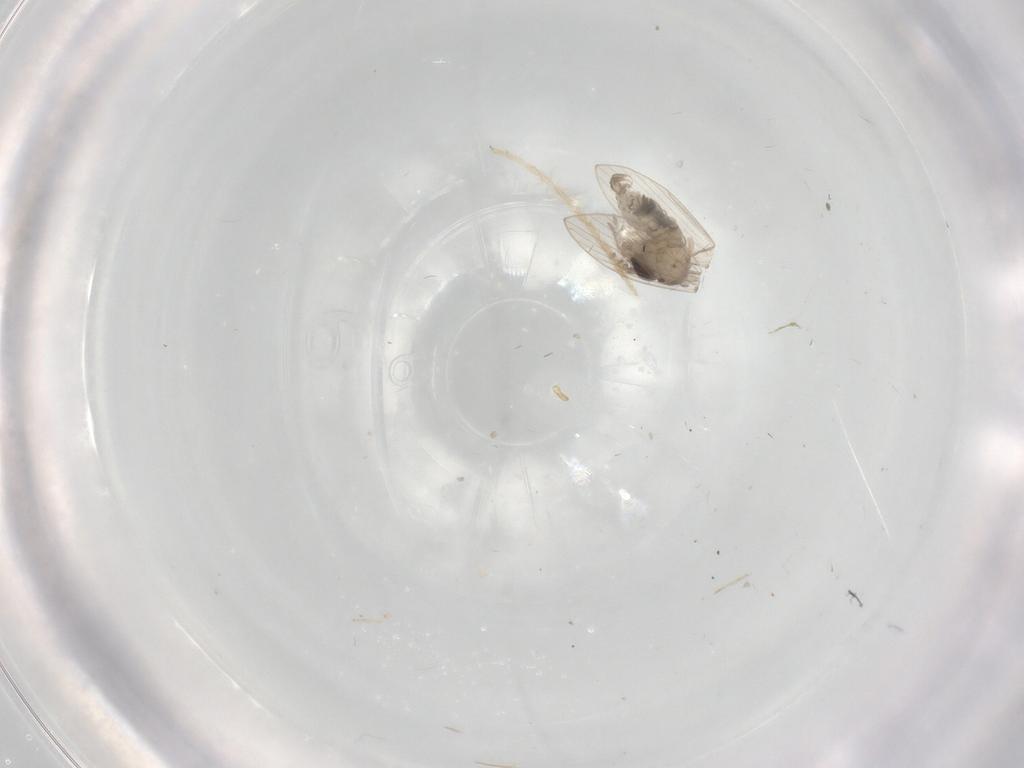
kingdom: Animalia
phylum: Arthropoda
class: Insecta
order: Diptera
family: Psychodidae
